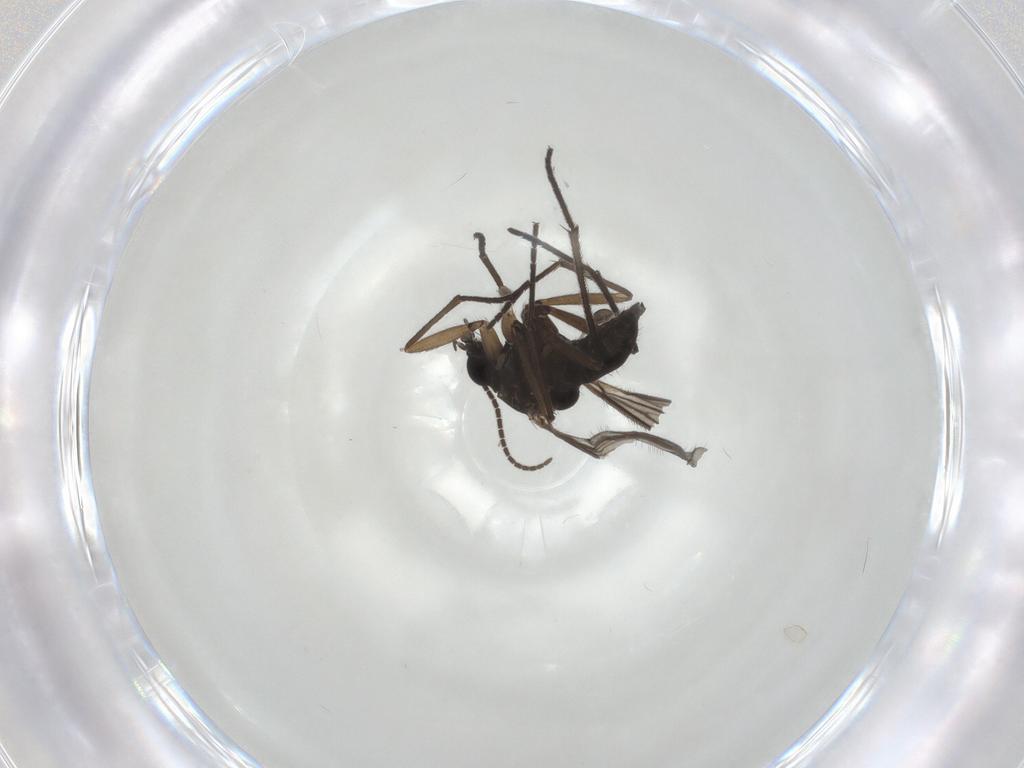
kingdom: Animalia
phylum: Arthropoda
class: Insecta
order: Diptera
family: Sciaridae
